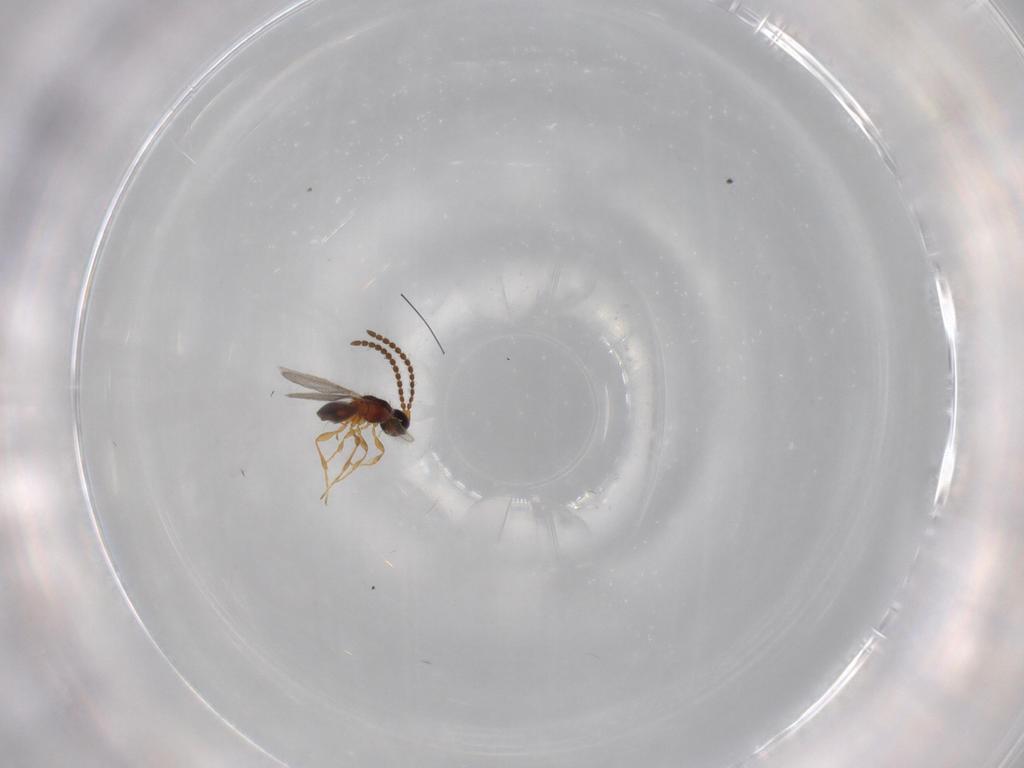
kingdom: Animalia
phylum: Arthropoda
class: Insecta
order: Hymenoptera
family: Diapriidae
